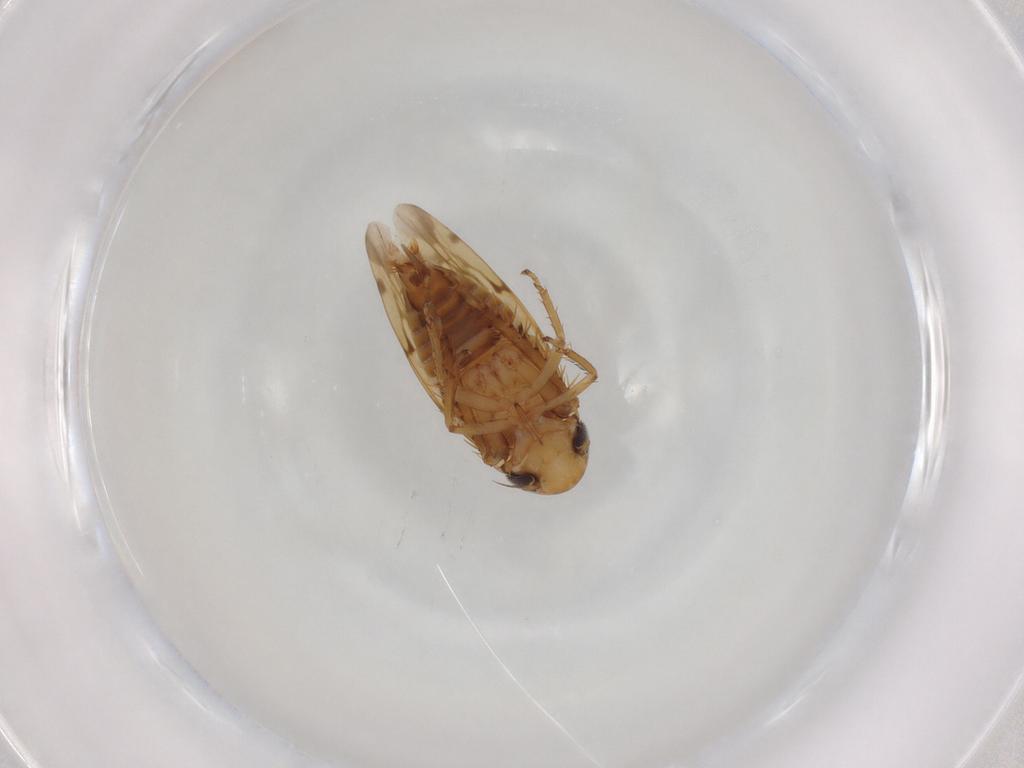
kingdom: Animalia
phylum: Arthropoda
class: Insecta
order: Hemiptera
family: Cicadellidae
